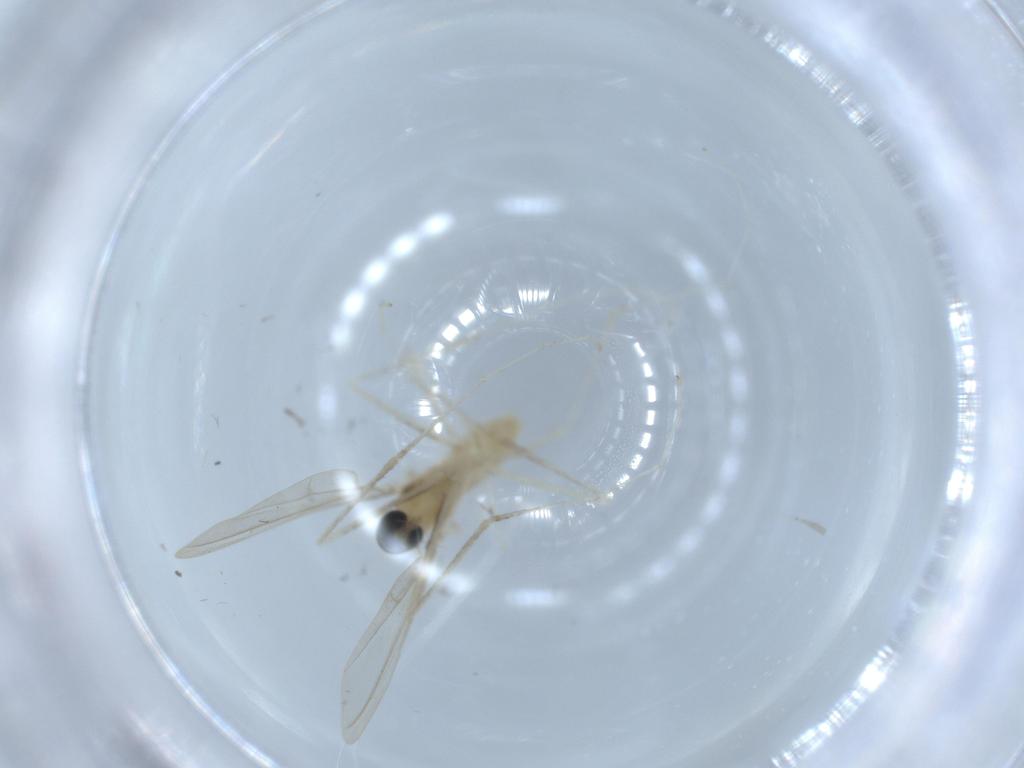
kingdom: Animalia
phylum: Arthropoda
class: Insecta
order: Diptera
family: Cecidomyiidae
